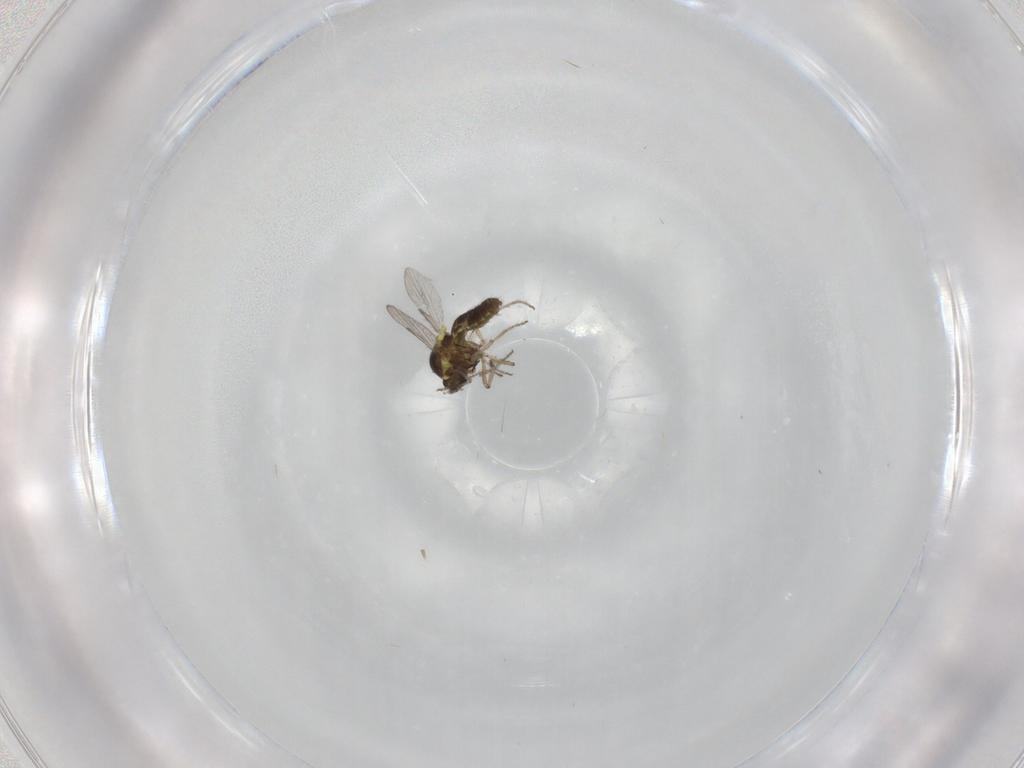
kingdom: Animalia
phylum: Arthropoda
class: Insecta
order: Diptera
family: Ceratopogonidae
